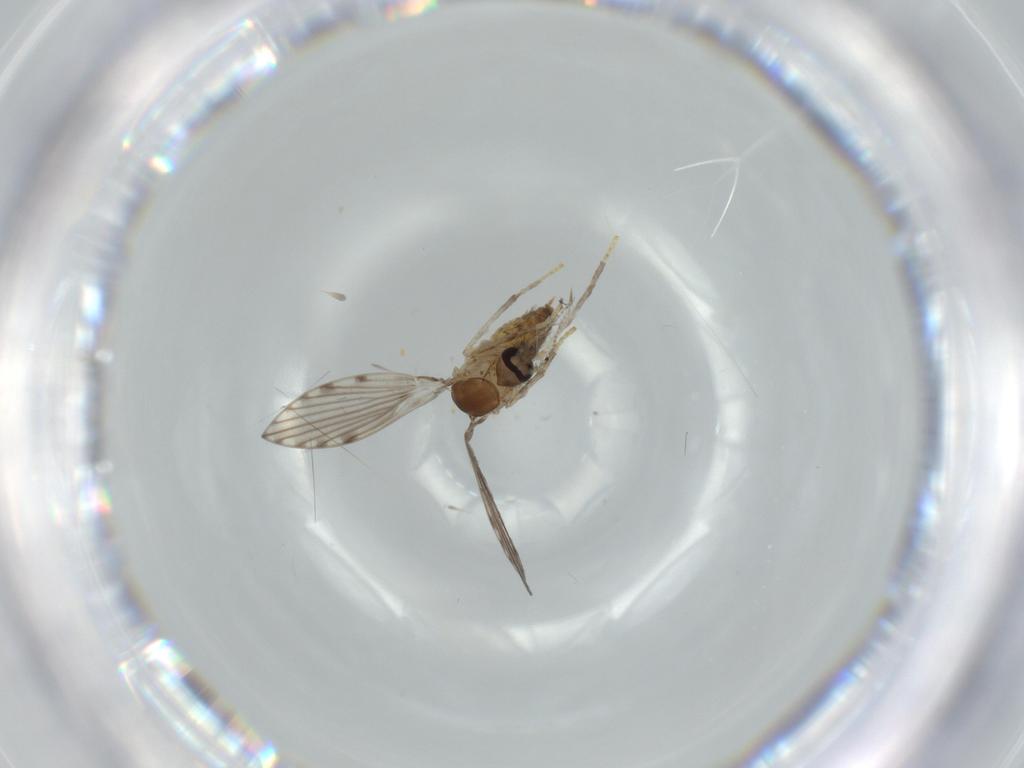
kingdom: Animalia
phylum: Arthropoda
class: Insecta
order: Diptera
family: Psychodidae
